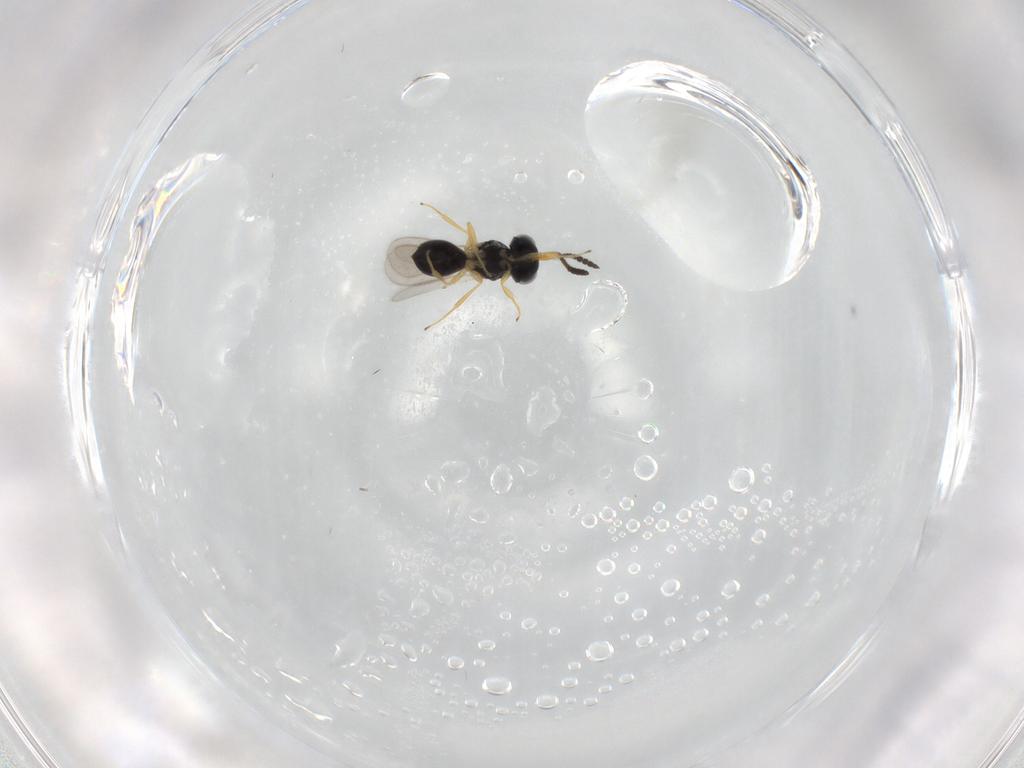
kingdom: Animalia
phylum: Arthropoda
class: Insecta
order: Hymenoptera
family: Scelionidae
